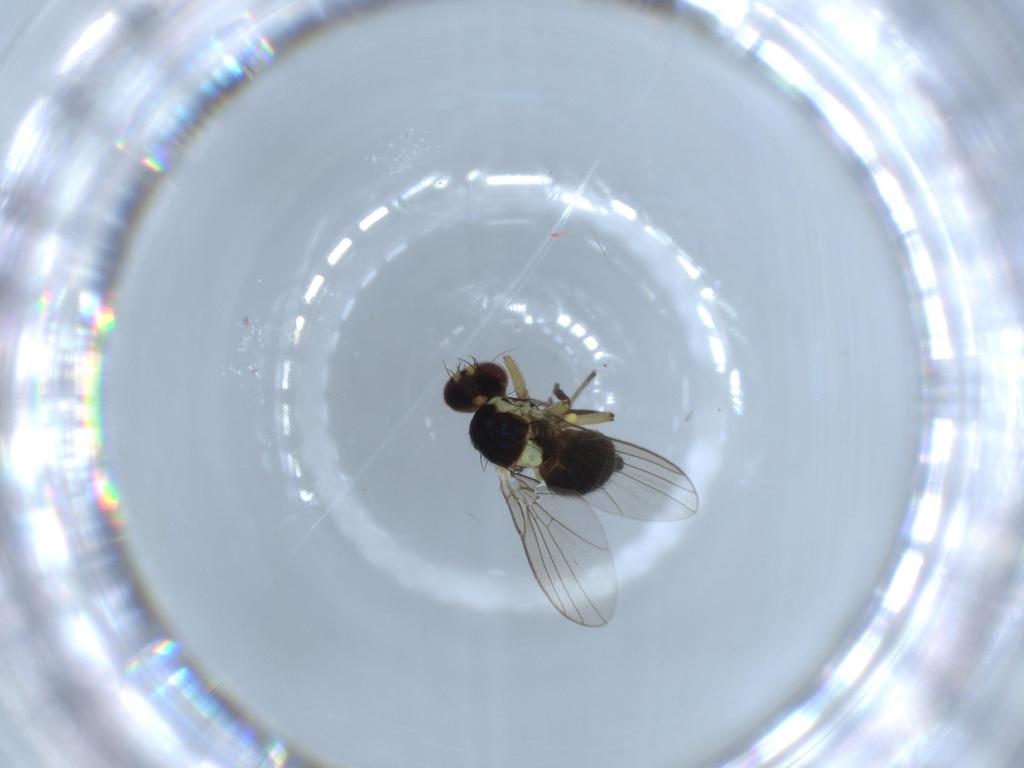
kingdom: Animalia
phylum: Arthropoda
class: Insecta
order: Diptera
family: Agromyzidae
